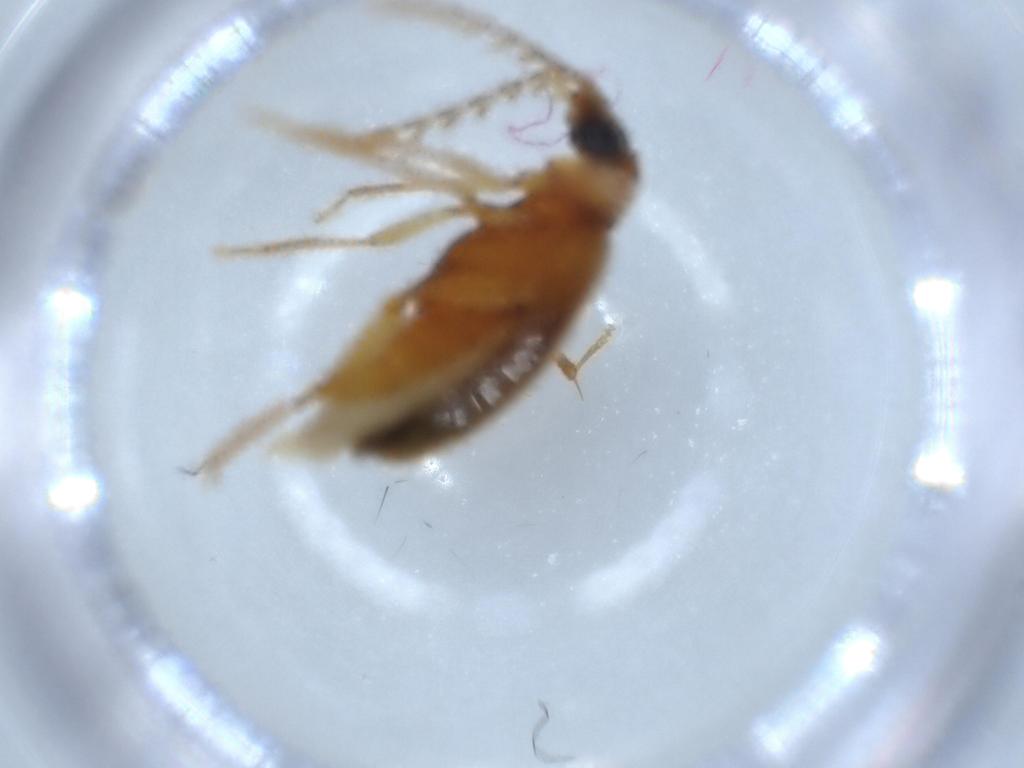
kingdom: Animalia
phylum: Arthropoda
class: Insecta
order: Coleoptera
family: Ptilodactylidae
